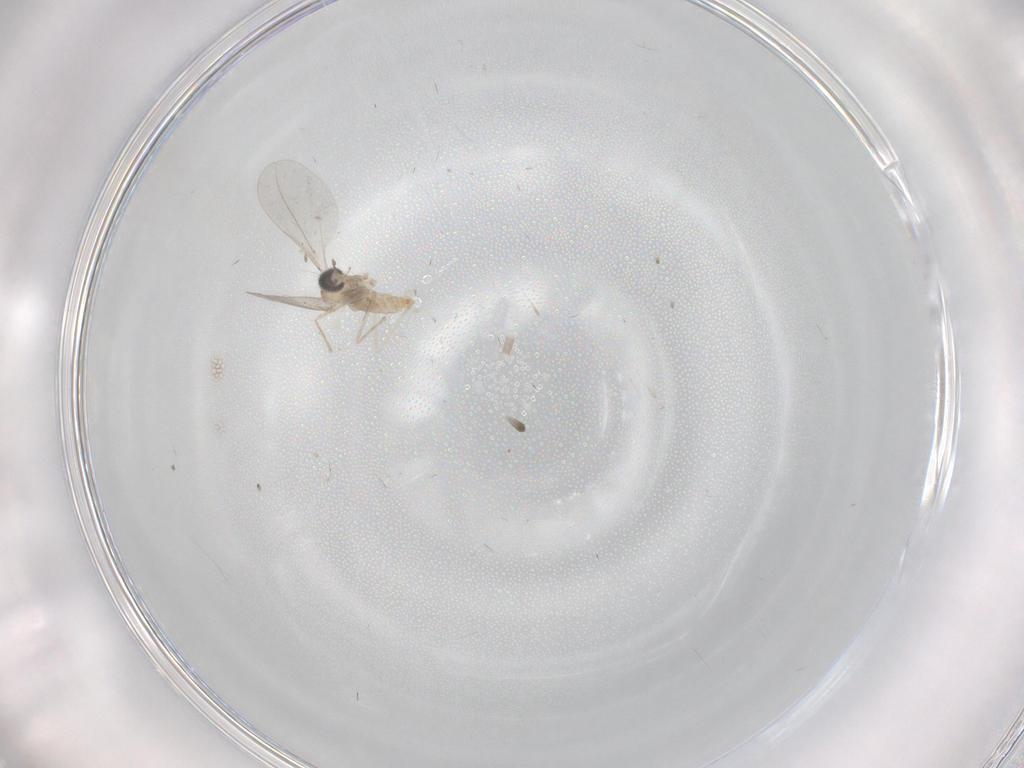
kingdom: Animalia
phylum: Arthropoda
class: Insecta
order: Diptera
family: Cecidomyiidae
